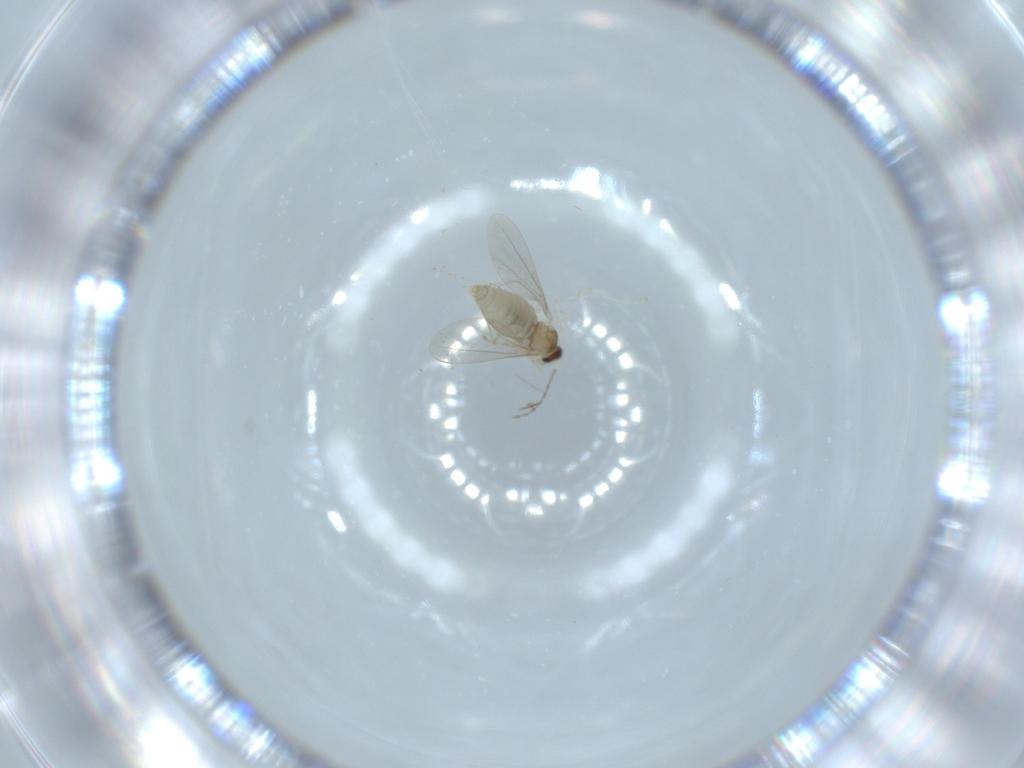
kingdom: Animalia
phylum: Arthropoda
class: Insecta
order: Diptera
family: Cecidomyiidae
